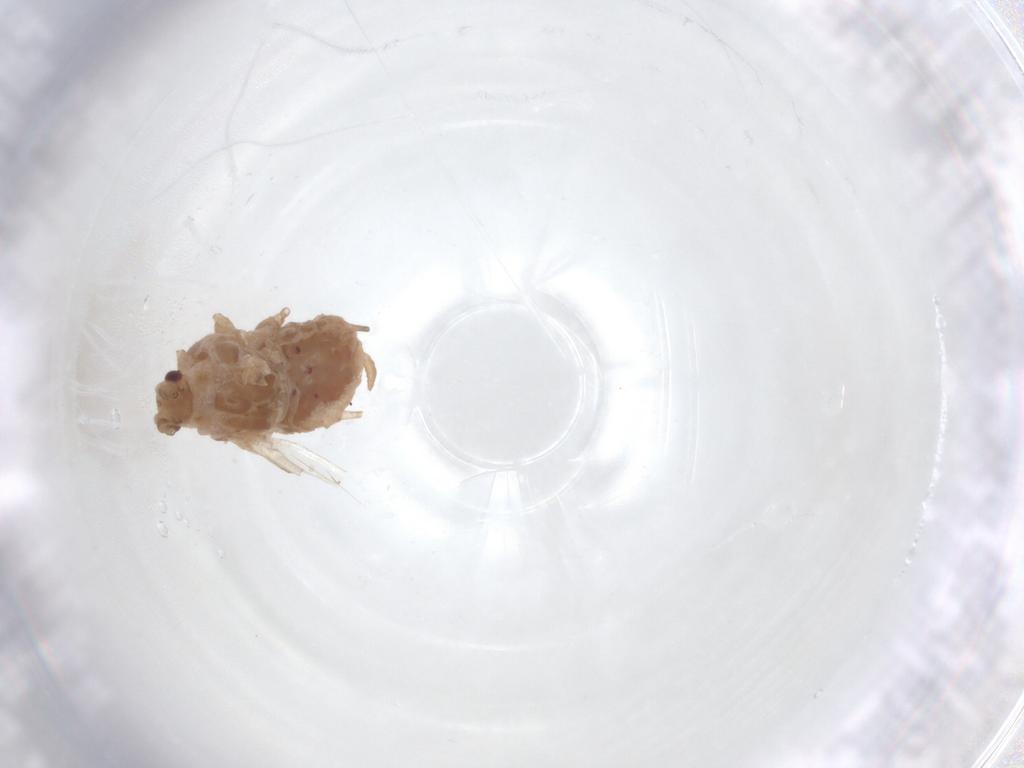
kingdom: Animalia
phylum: Arthropoda
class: Insecta
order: Hemiptera
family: Aphididae
